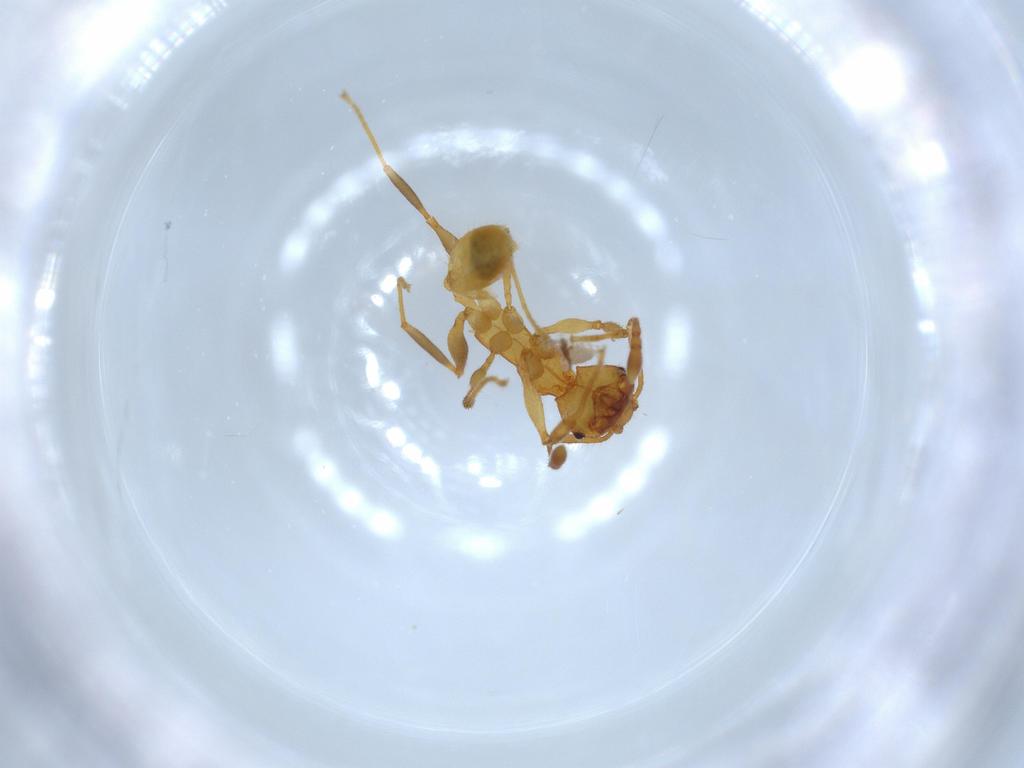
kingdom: Animalia
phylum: Arthropoda
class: Insecta
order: Hymenoptera
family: Formicidae
